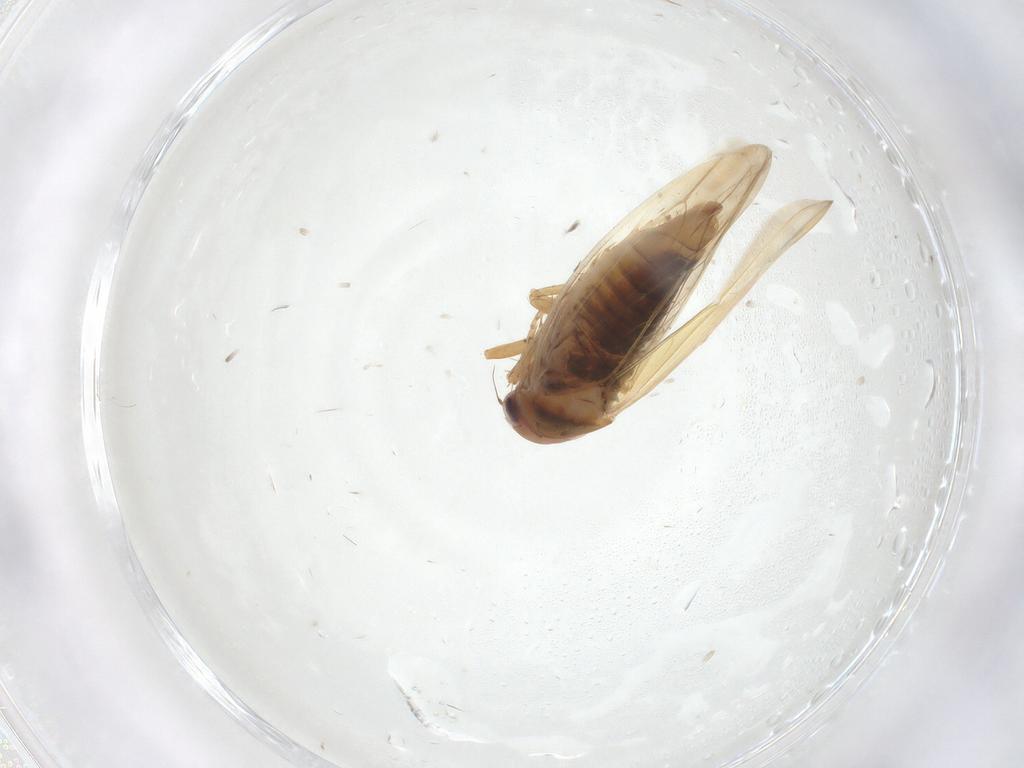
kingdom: Animalia
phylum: Arthropoda
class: Insecta
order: Hemiptera
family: Cicadellidae
